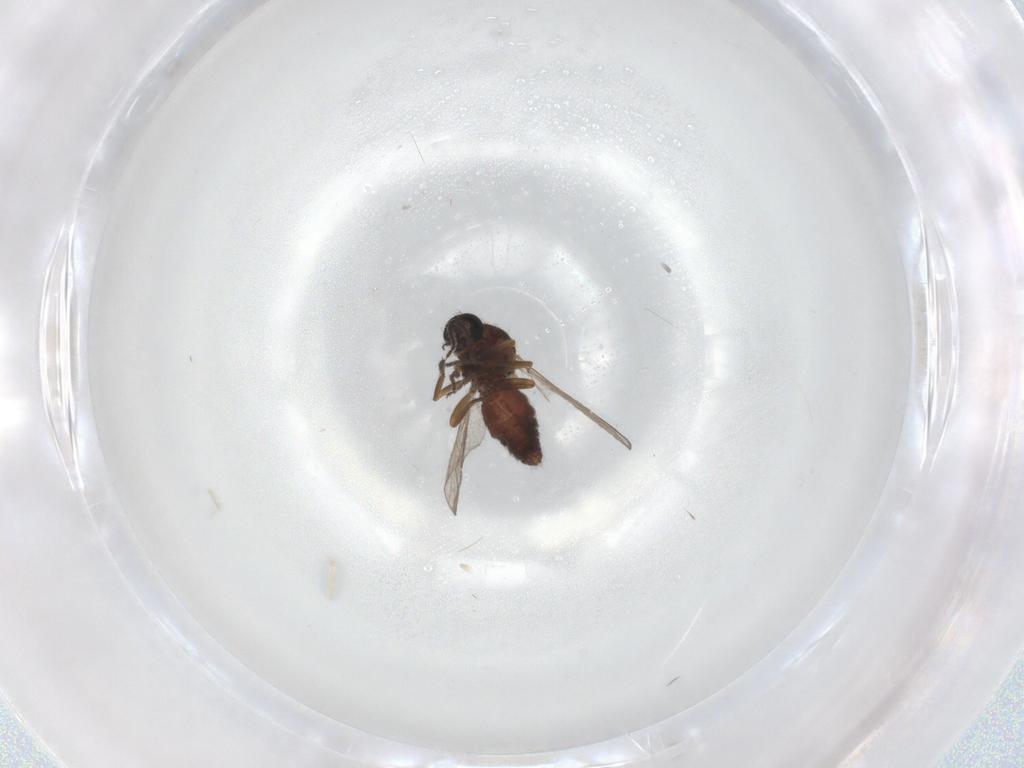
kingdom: Animalia
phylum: Arthropoda
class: Insecta
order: Diptera
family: Ceratopogonidae
